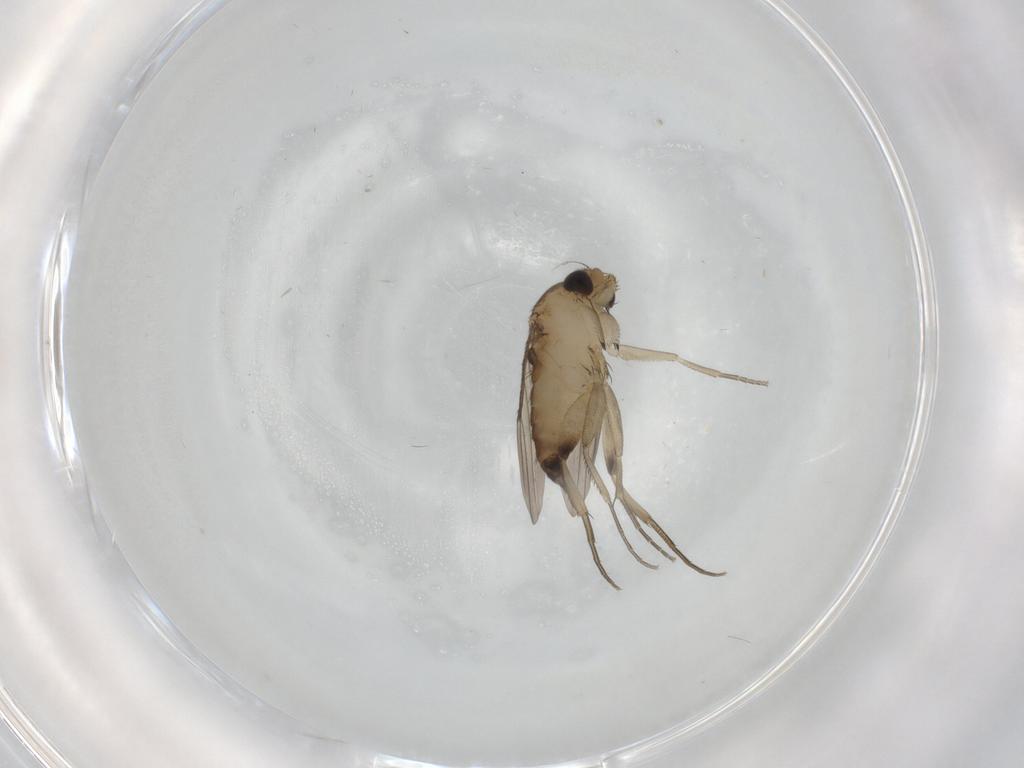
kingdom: Animalia
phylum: Arthropoda
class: Insecta
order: Diptera
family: Phoridae
